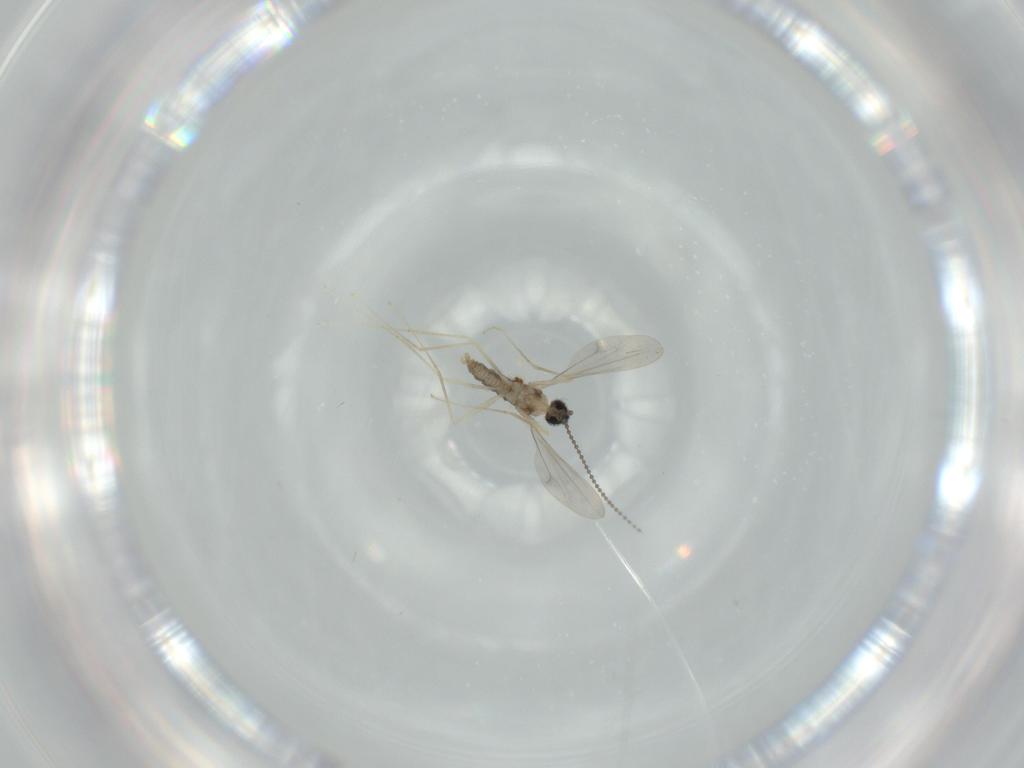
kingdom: Animalia
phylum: Arthropoda
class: Insecta
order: Diptera
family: Cecidomyiidae
